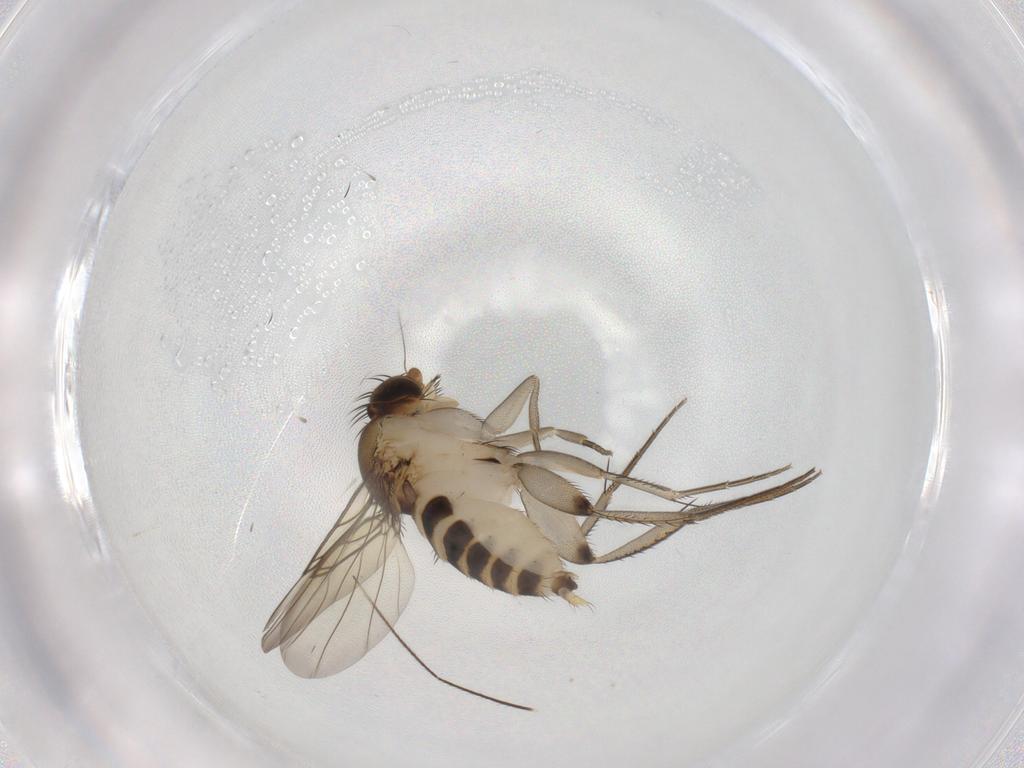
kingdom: Animalia
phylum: Arthropoda
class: Insecta
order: Diptera
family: Phoridae
